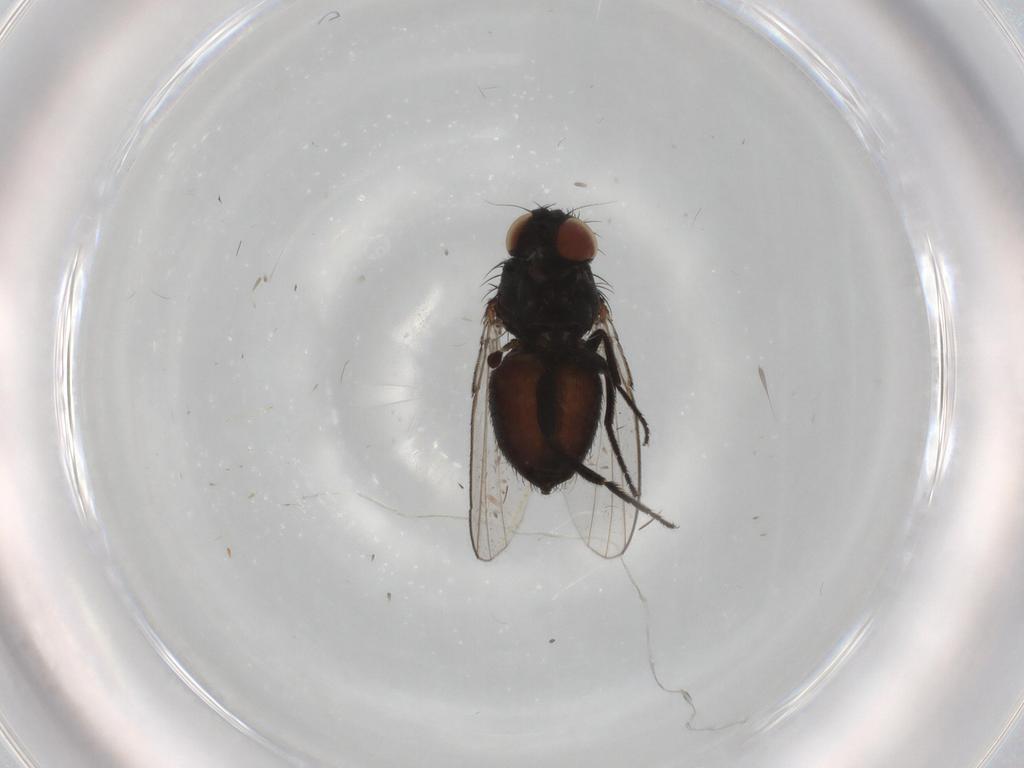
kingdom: Animalia
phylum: Arthropoda
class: Insecta
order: Diptera
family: Milichiidae
